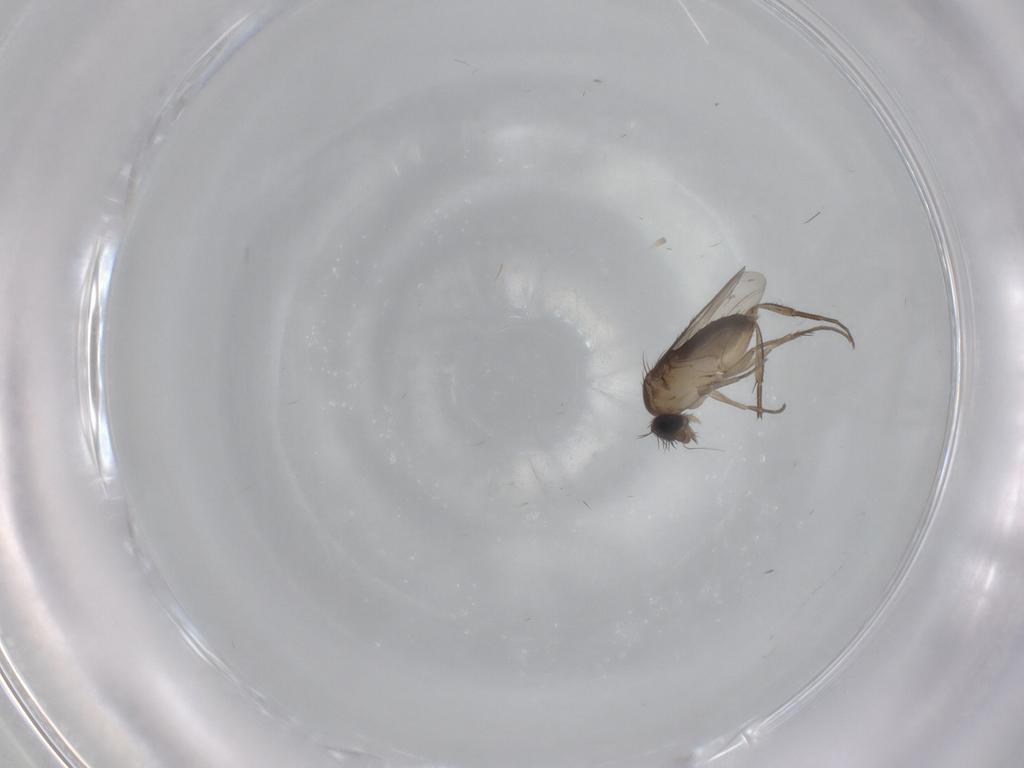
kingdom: Animalia
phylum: Arthropoda
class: Insecta
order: Diptera
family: Phoridae
